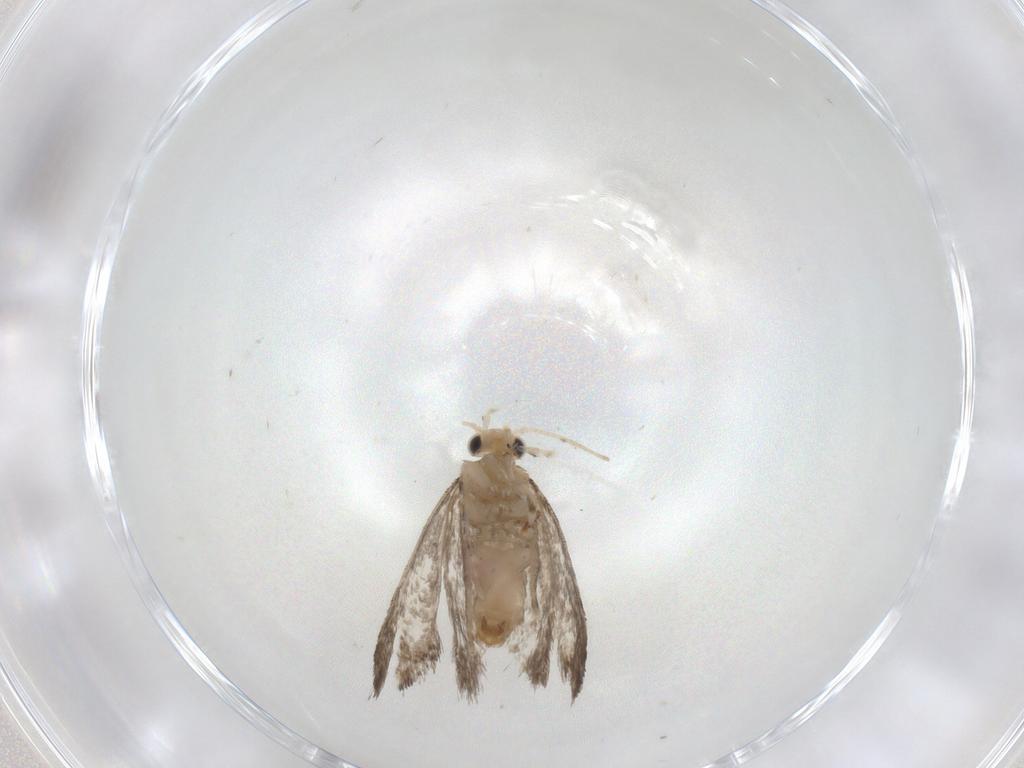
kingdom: Animalia
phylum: Arthropoda
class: Insecta
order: Lepidoptera
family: Tineidae
